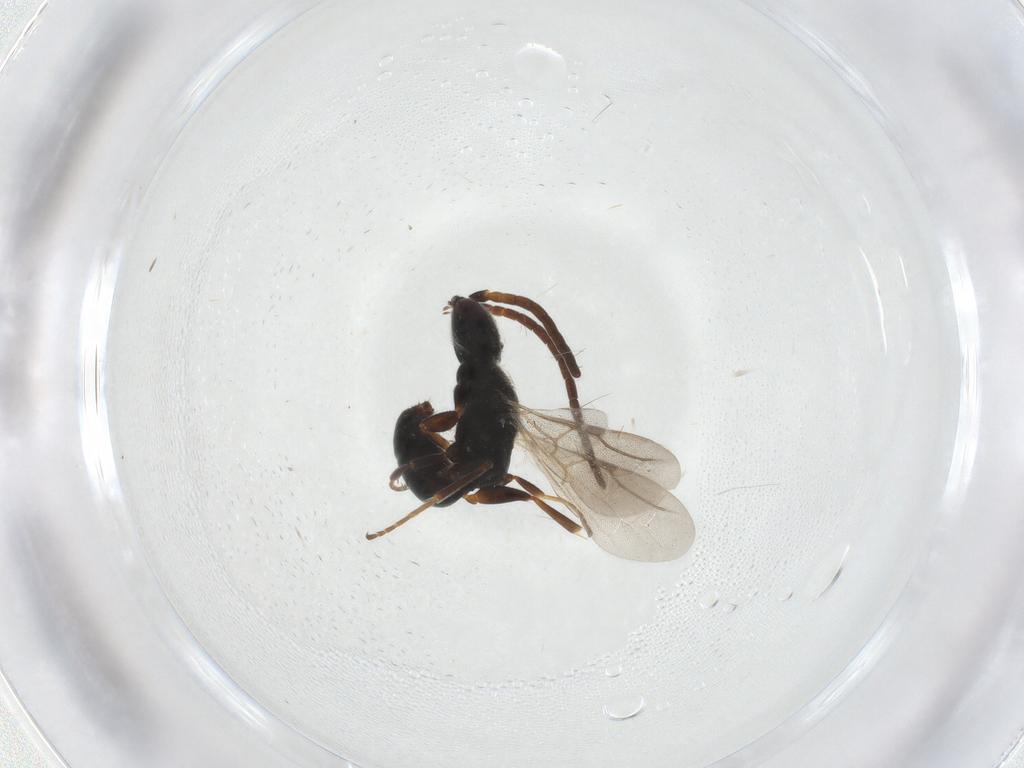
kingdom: Animalia
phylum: Arthropoda
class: Insecta
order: Hymenoptera
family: Bethylidae
